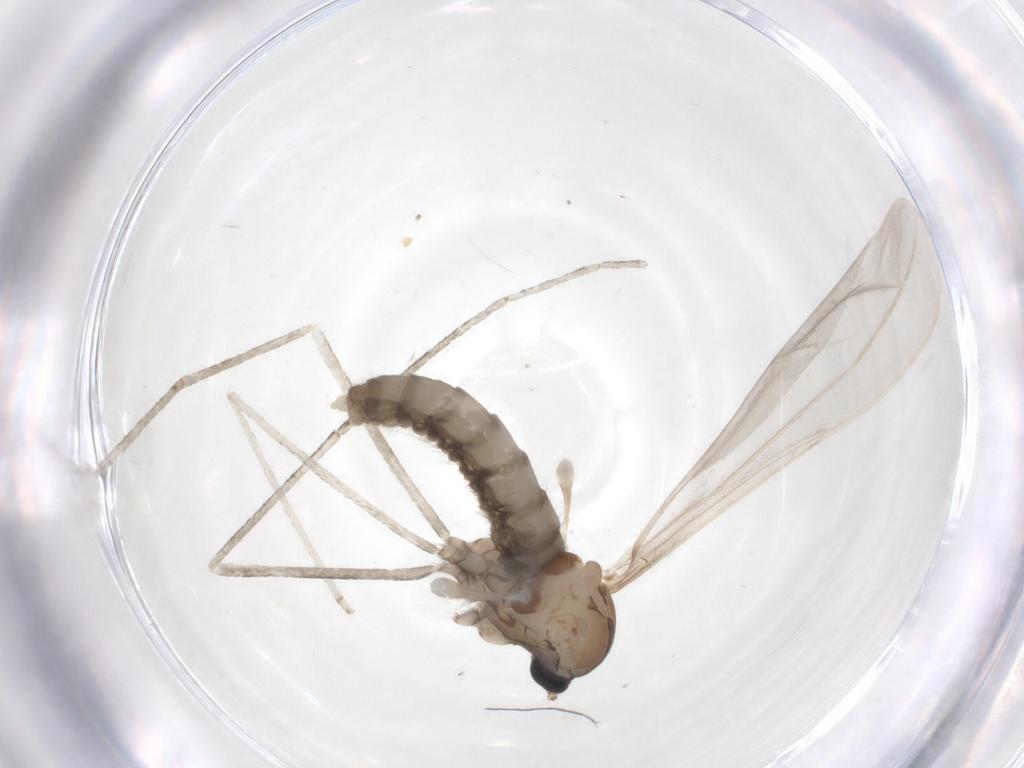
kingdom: Animalia
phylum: Arthropoda
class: Insecta
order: Diptera
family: Cecidomyiidae
